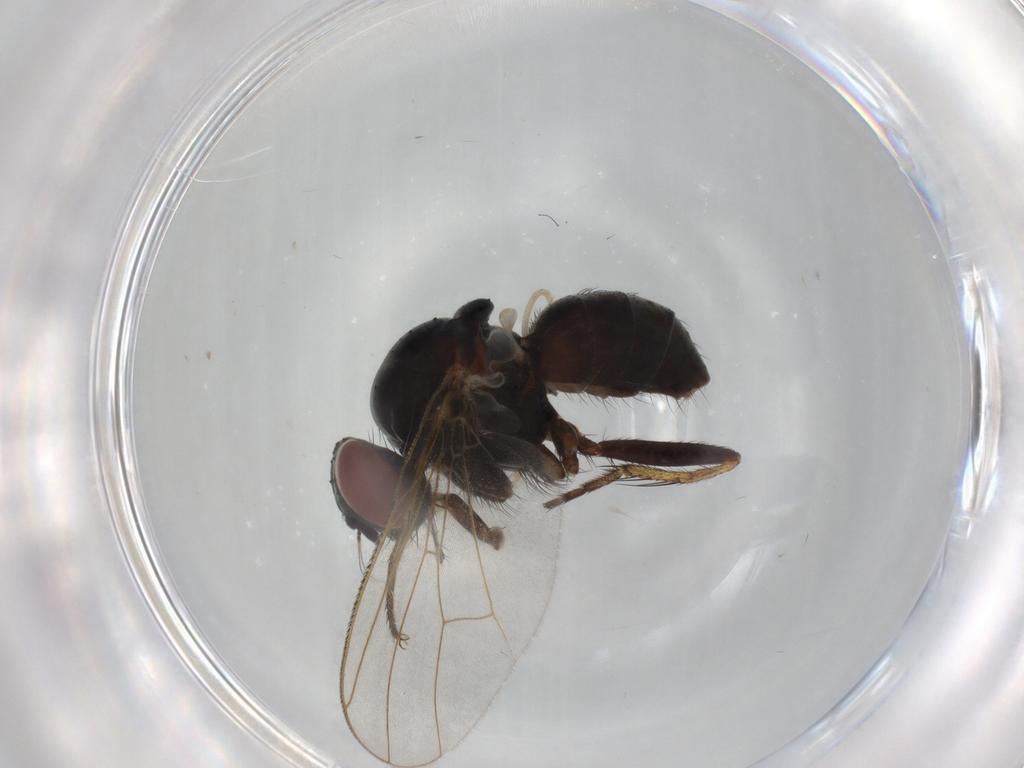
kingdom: Animalia
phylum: Arthropoda
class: Insecta
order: Diptera
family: Muscidae
